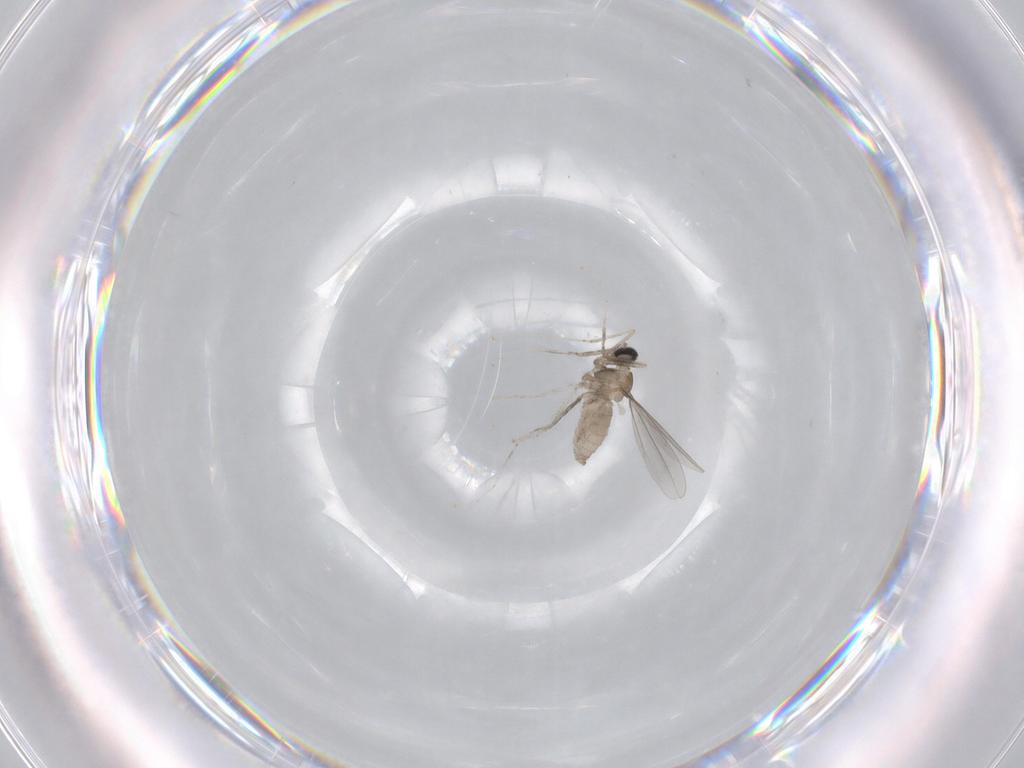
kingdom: Animalia
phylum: Arthropoda
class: Insecta
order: Diptera
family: Cecidomyiidae
